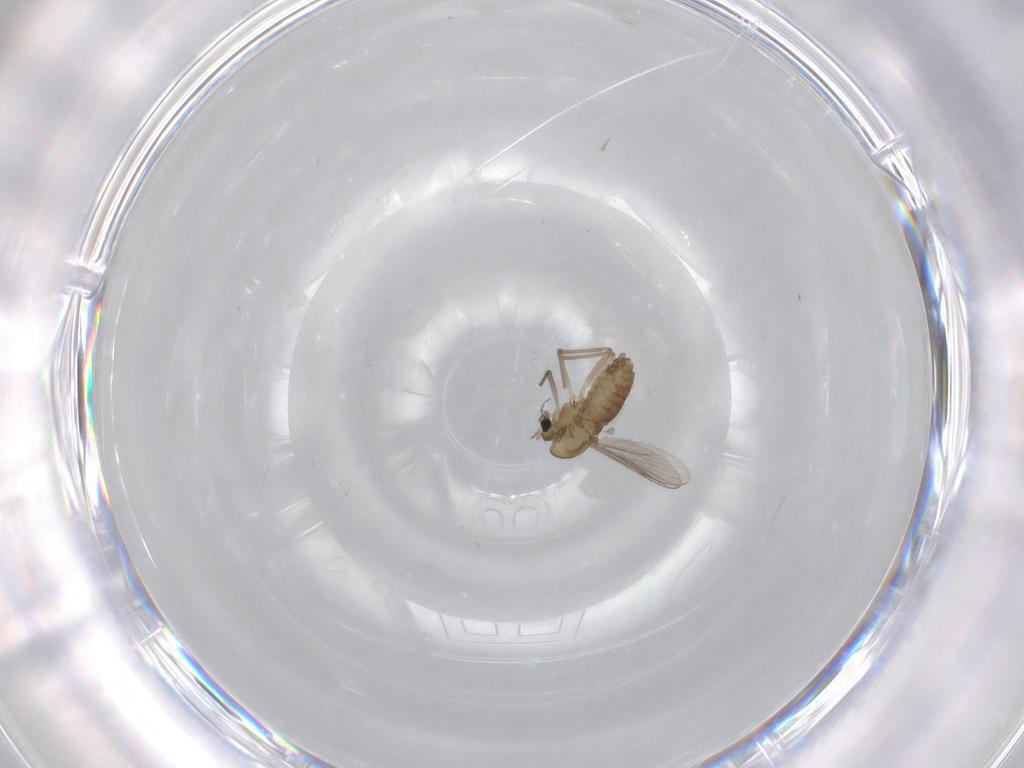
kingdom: Animalia
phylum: Arthropoda
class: Insecta
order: Diptera
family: Chironomidae
